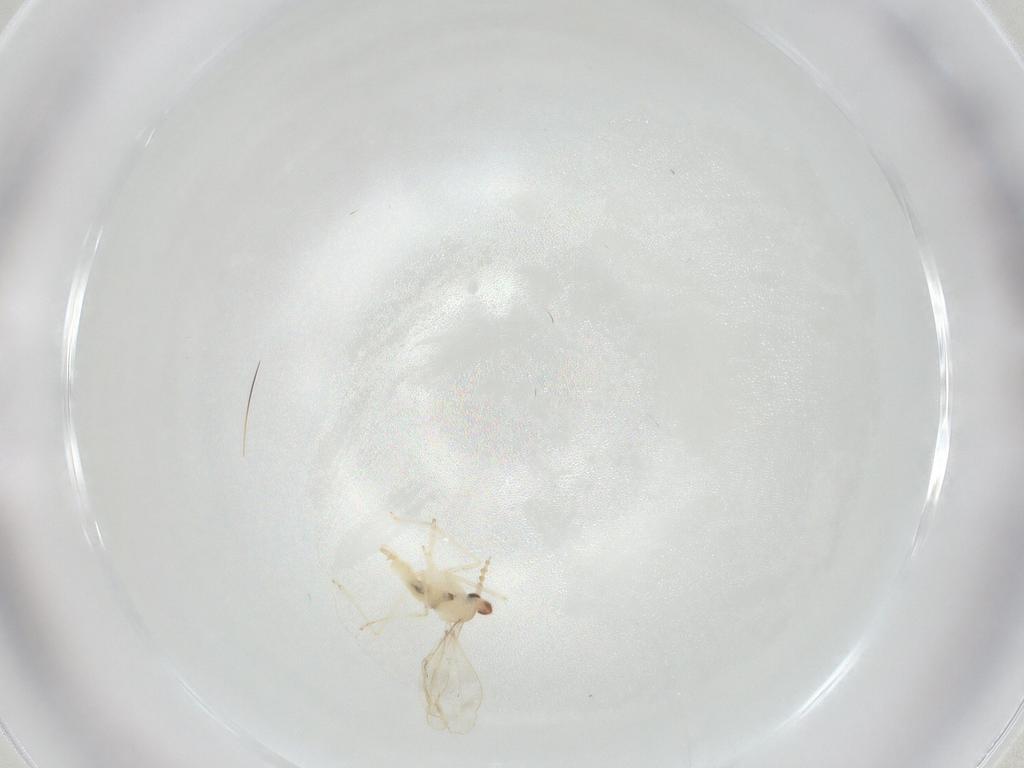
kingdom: Animalia
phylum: Arthropoda
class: Insecta
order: Diptera
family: Cecidomyiidae
